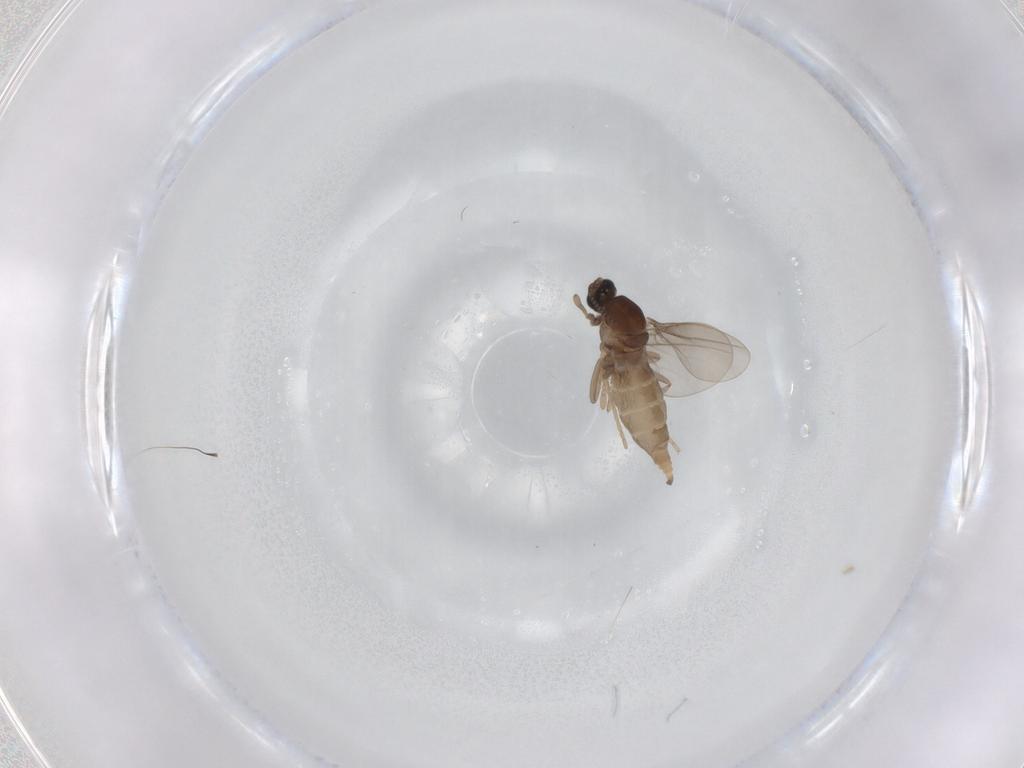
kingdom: Animalia
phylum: Arthropoda
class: Insecta
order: Diptera
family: Cecidomyiidae
